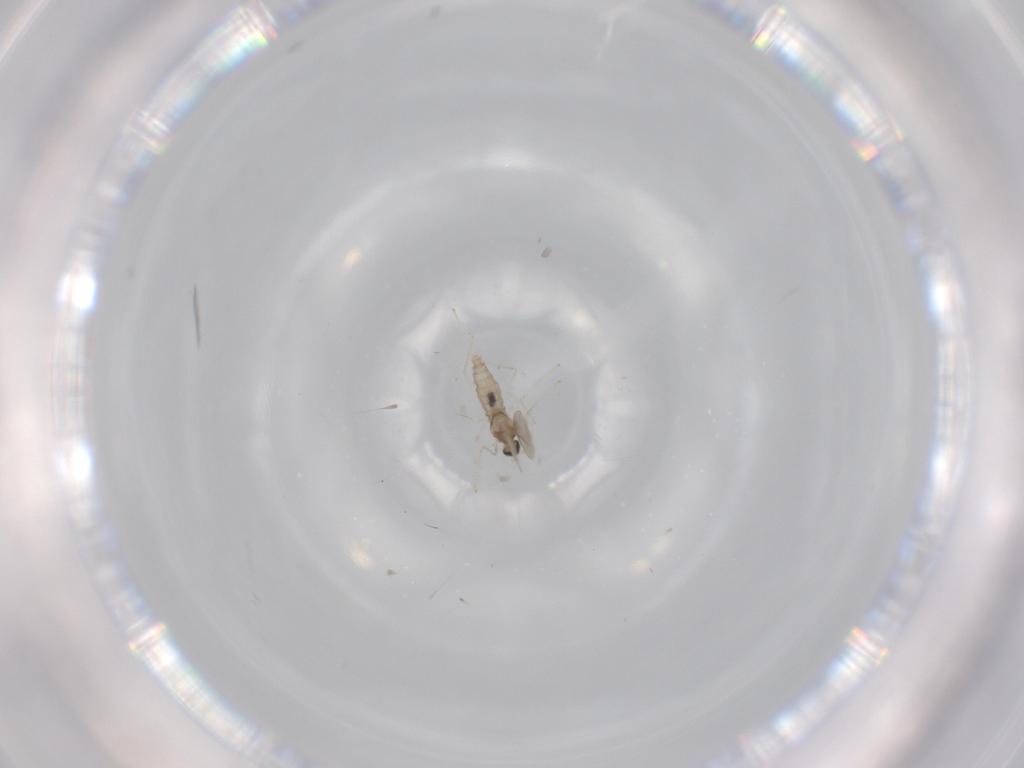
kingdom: Animalia
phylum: Arthropoda
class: Insecta
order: Diptera
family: Cecidomyiidae
